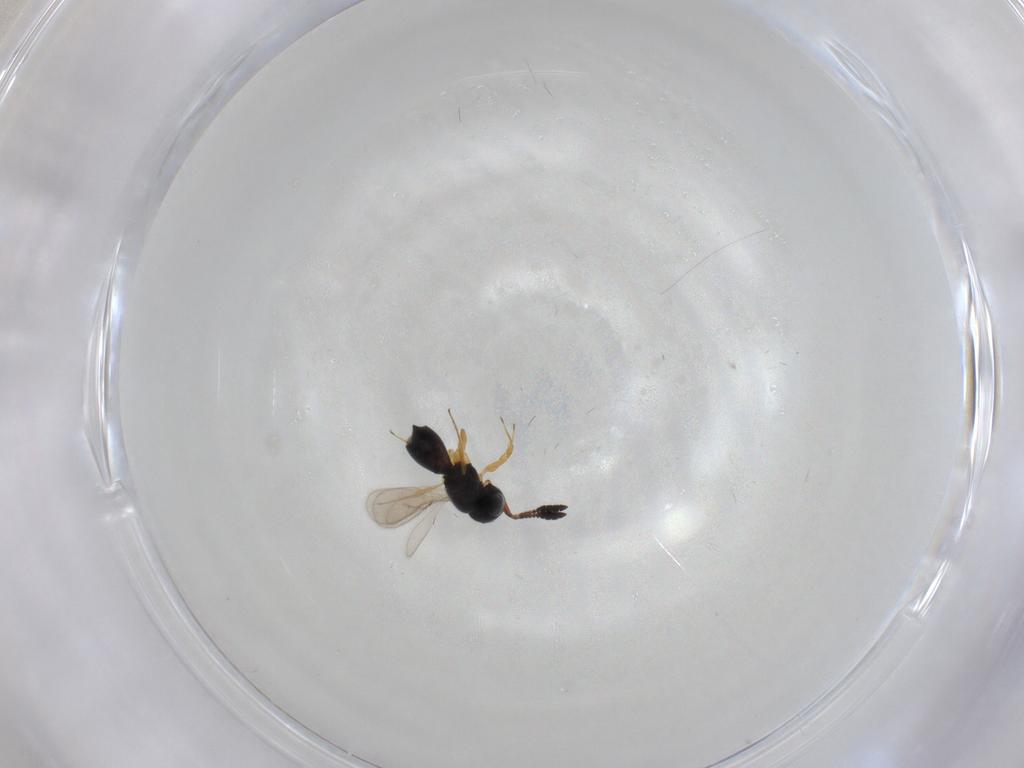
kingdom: Animalia
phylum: Arthropoda
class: Insecta
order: Hymenoptera
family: Scelionidae
